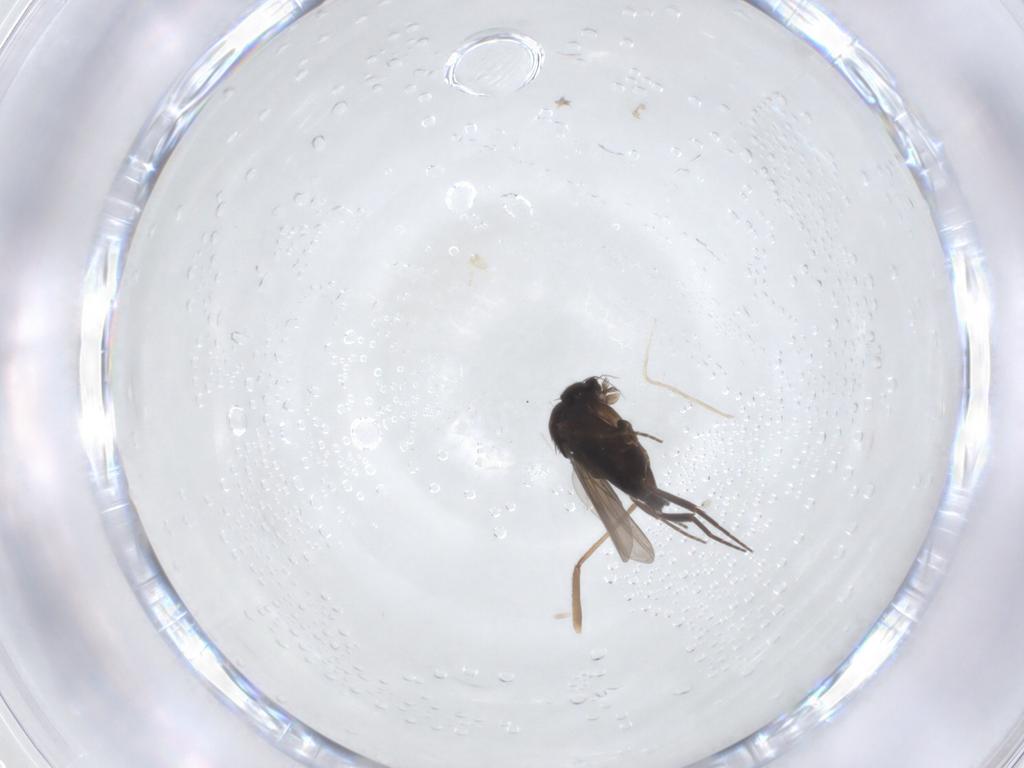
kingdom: Animalia
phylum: Arthropoda
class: Insecta
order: Diptera
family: Chironomidae
